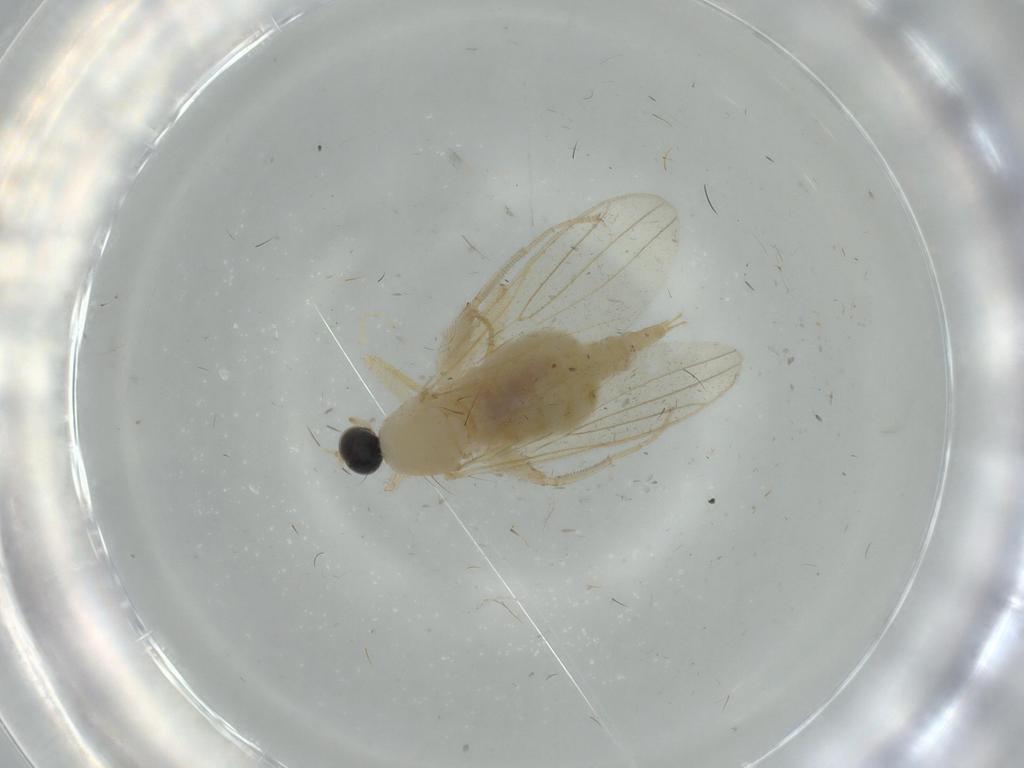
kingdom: Animalia
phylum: Arthropoda
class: Insecta
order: Diptera
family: Hybotidae
